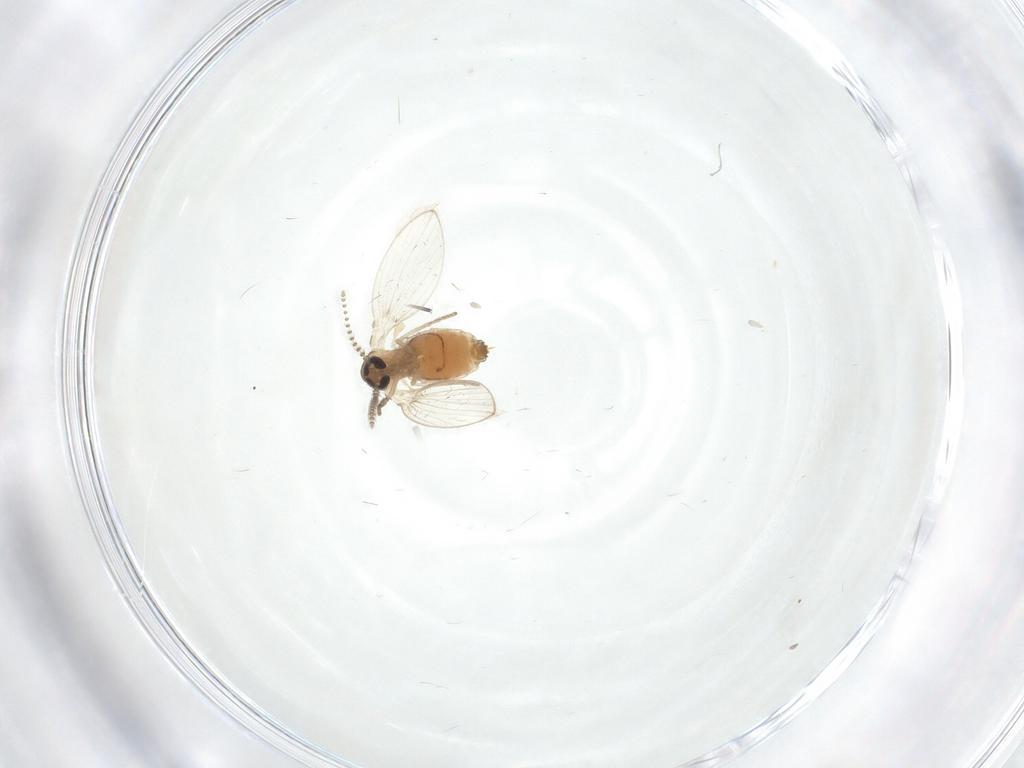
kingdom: Animalia
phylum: Arthropoda
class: Insecta
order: Diptera
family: Psychodidae
